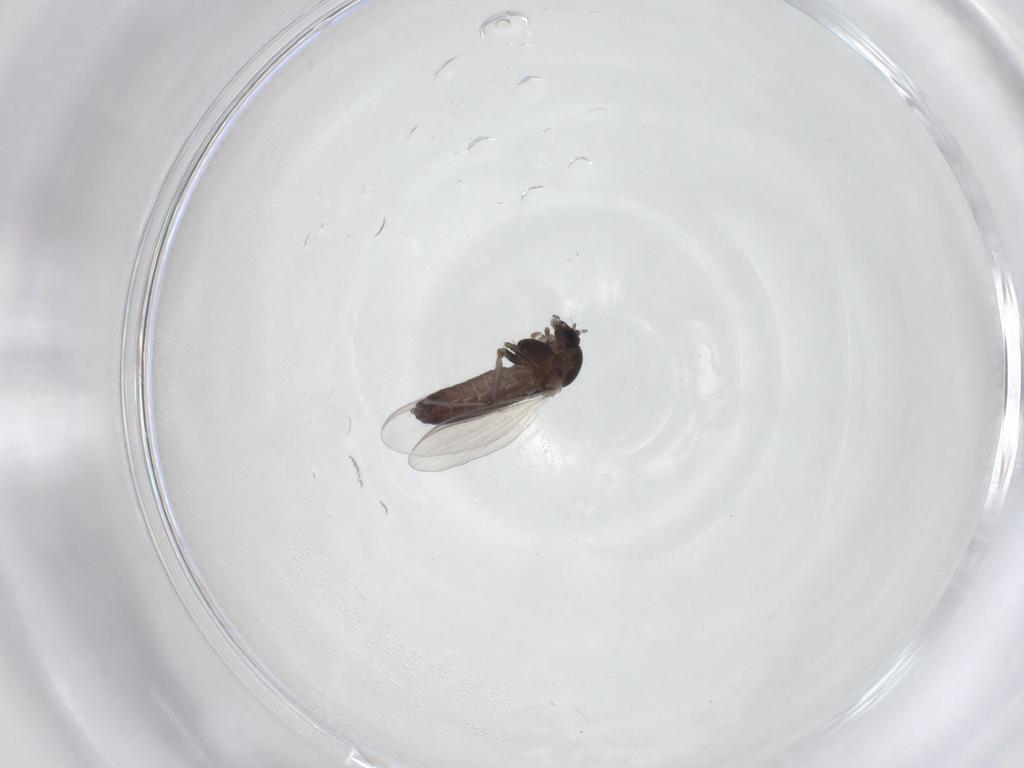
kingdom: Animalia
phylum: Arthropoda
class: Insecta
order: Diptera
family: Chironomidae
